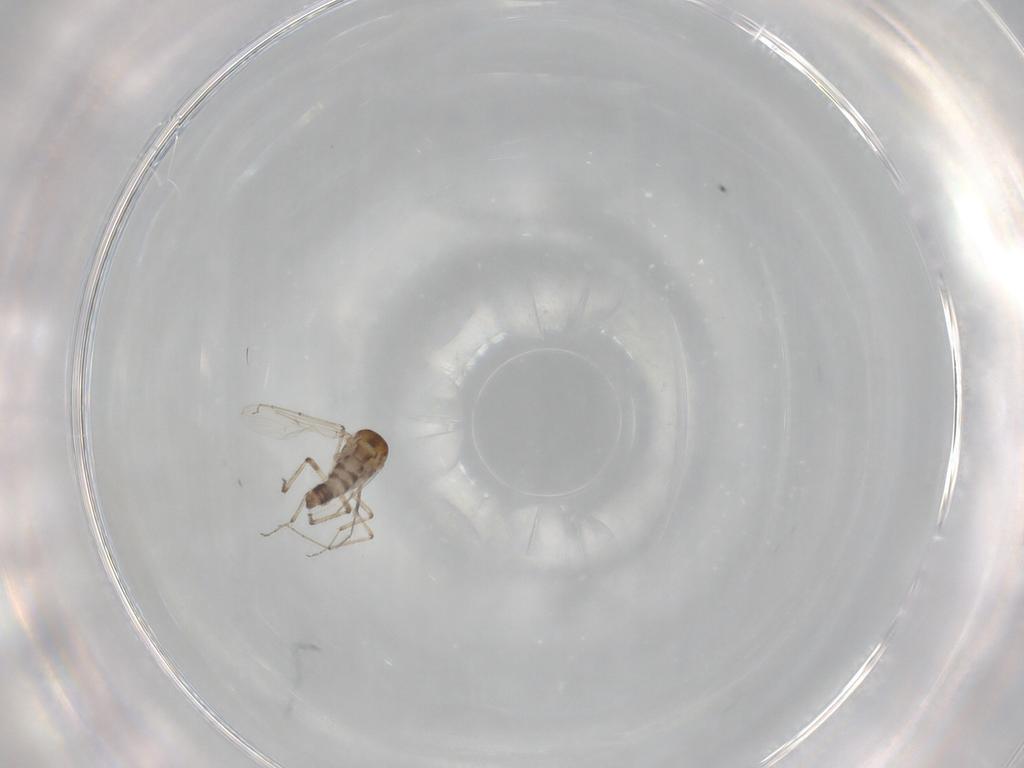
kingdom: Animalia
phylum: Arthropoda
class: Insecta
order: Diptera
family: Ceratopogonidae
